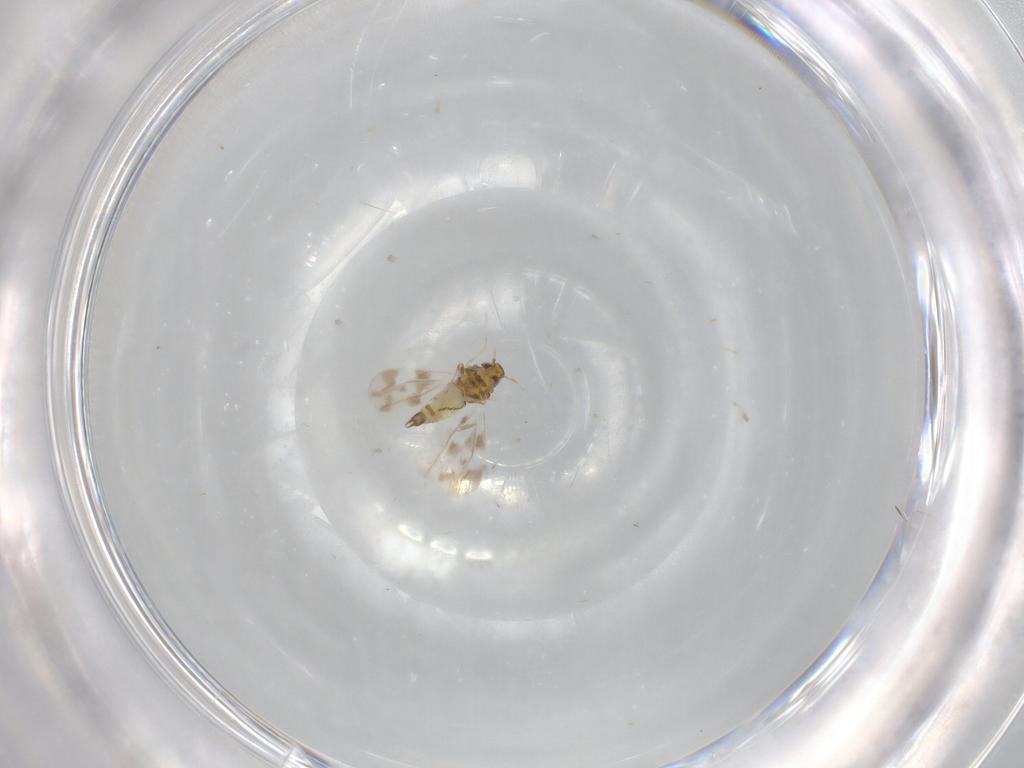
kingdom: Animalia
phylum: Arthropoda
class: Insecta
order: Hemiptera
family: Aleyrodidae
